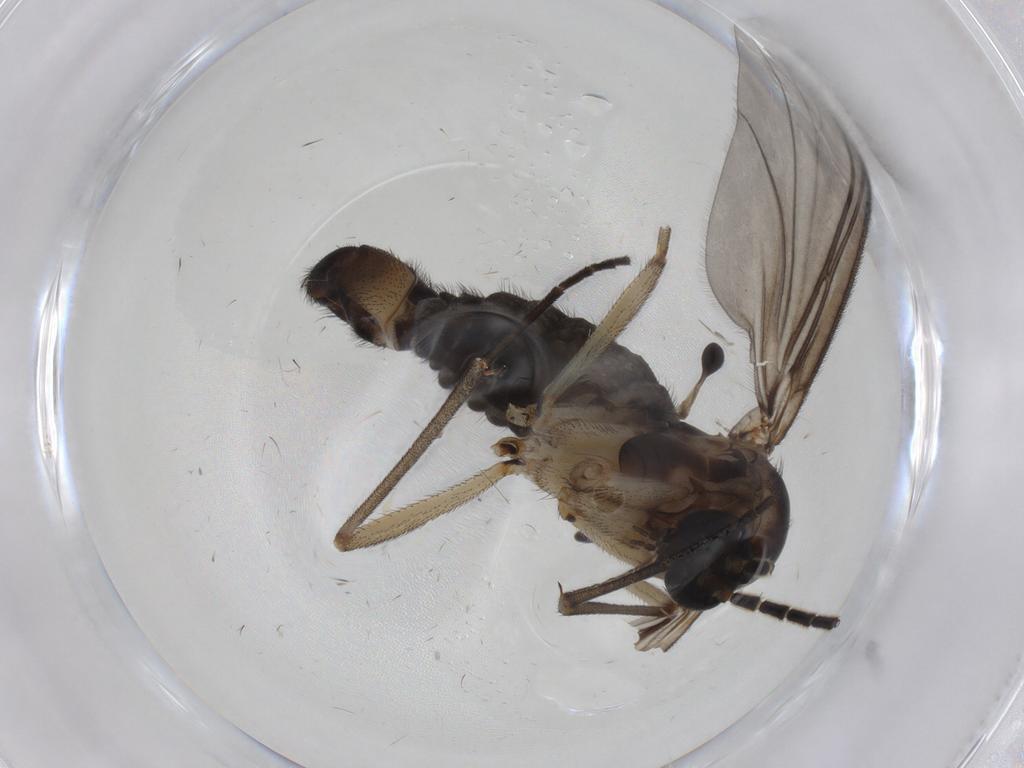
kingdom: Animalia
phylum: Arthropoda
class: Insecta
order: Diptera
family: Sciaridae
